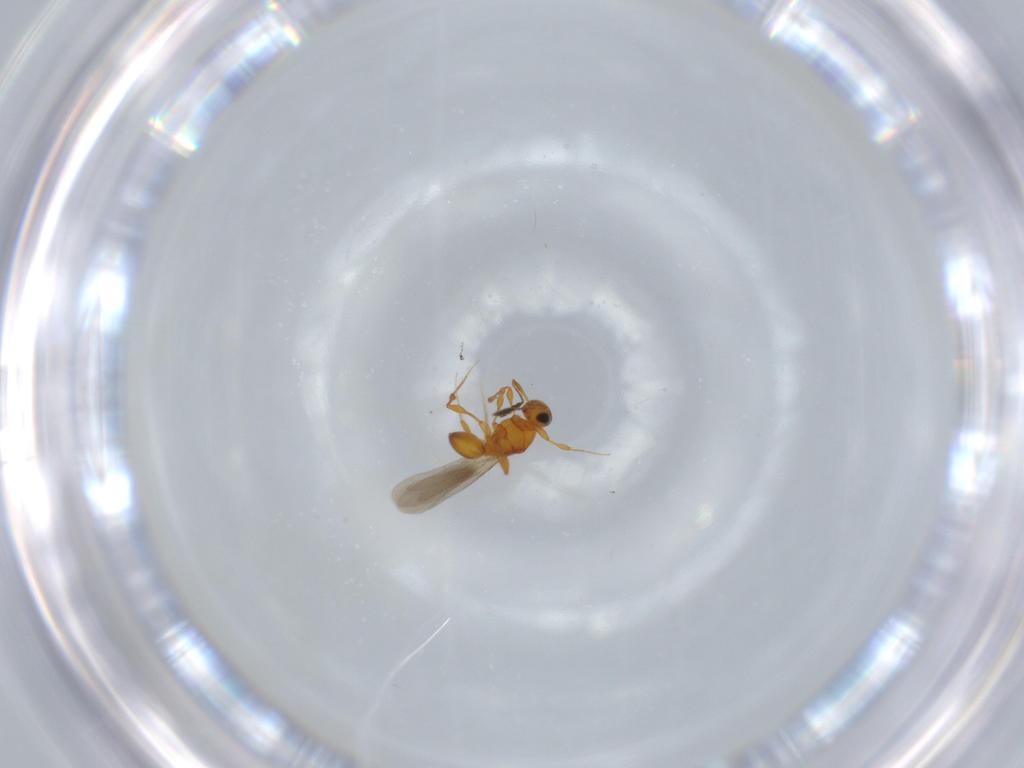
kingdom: Animalia
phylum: Arthropoda
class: Insecta
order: Hymenoptera
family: Platygastridae
